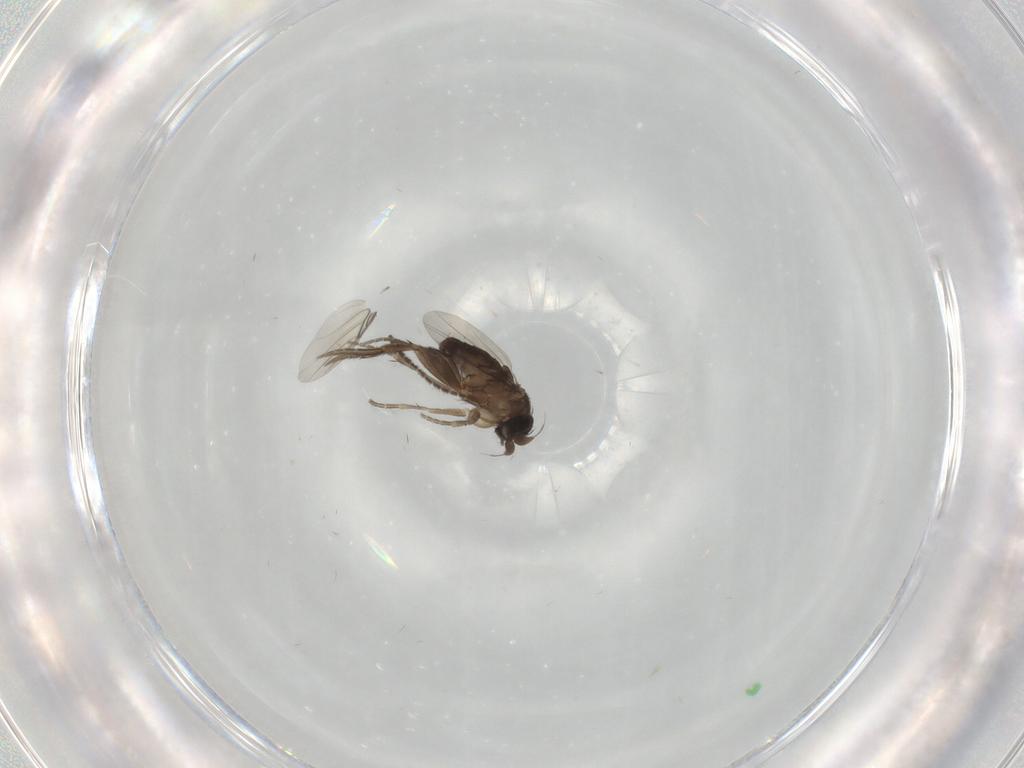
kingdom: Animalia
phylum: Arthropoda
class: Insecta
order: Diptera
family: Phoridae
